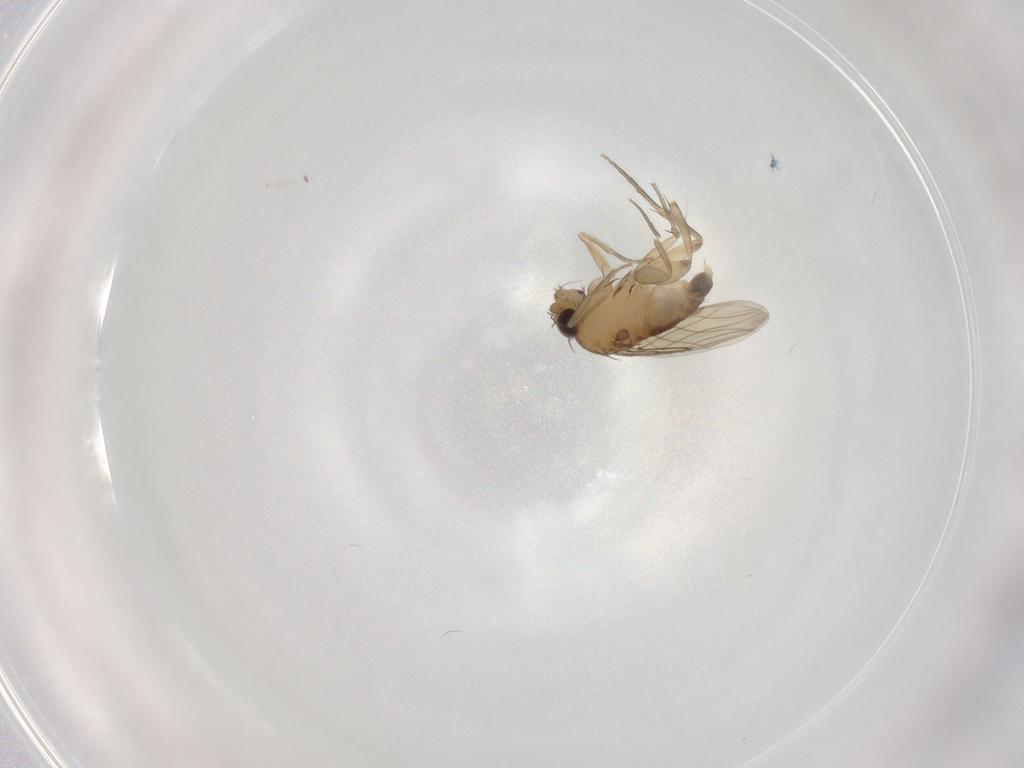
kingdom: Animalia
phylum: Arthropoda
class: Insecta
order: Diptera
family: Phoridae
